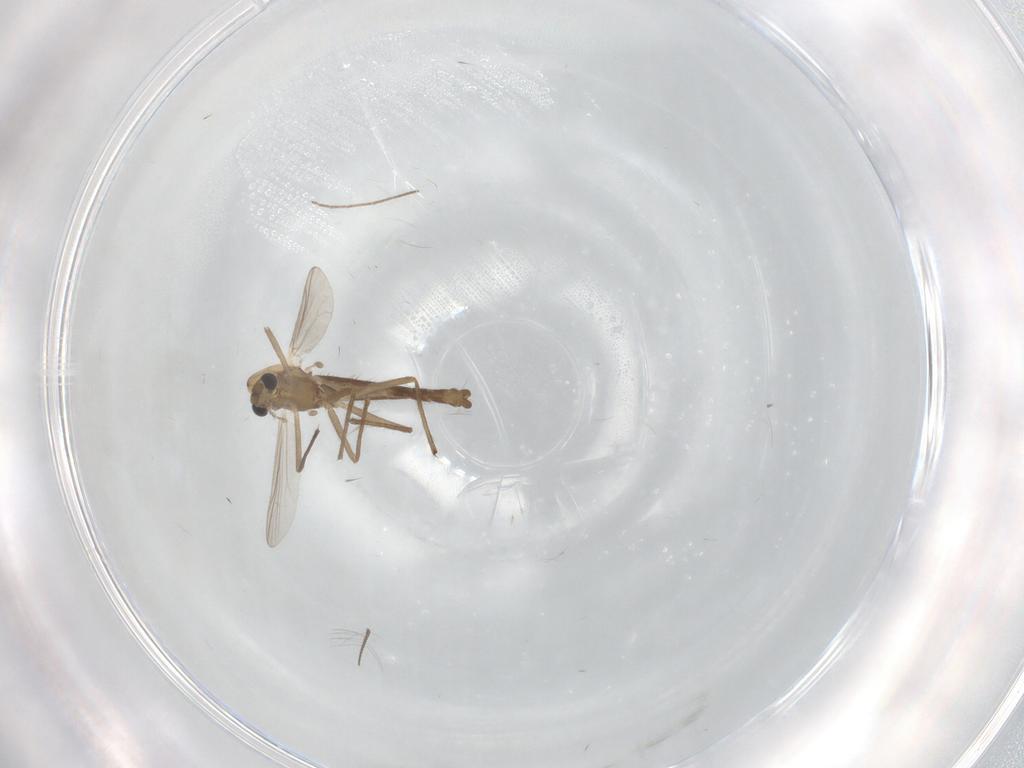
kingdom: Animalia
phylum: Arthropoda
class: Insecta
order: Diptera
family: Chironomidae
